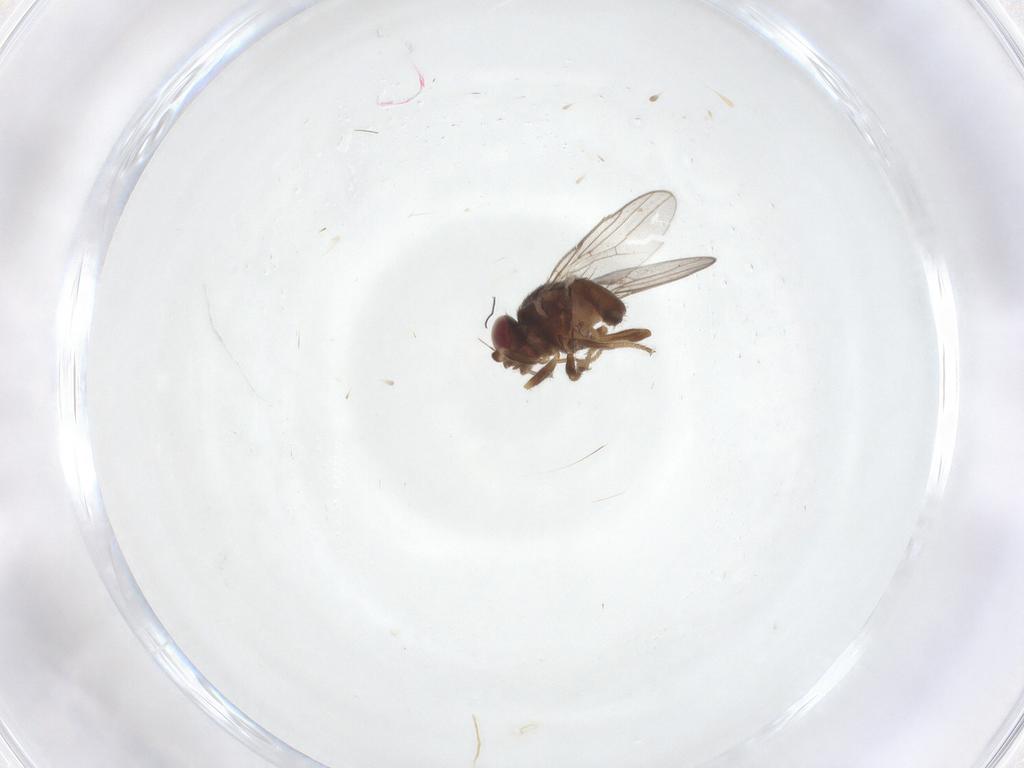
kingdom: Animalia
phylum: Arthropoda
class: Insecta
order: Diptera
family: Chloropidae
